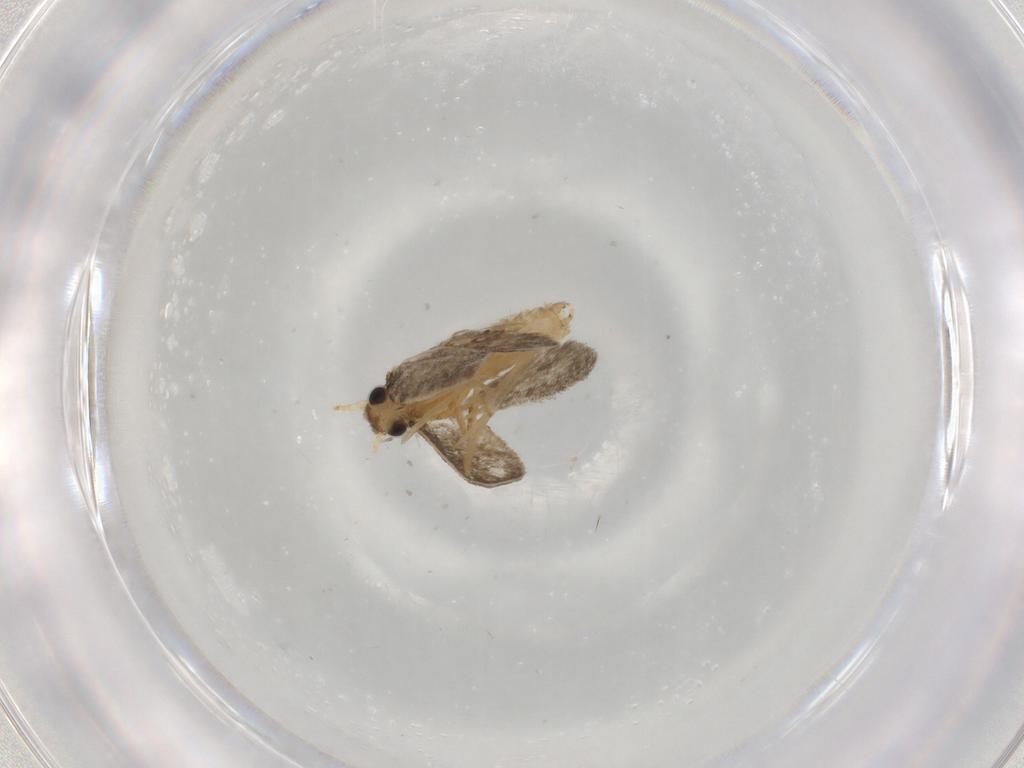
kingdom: Animalia
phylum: Arthropoda
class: Insecta
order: Lepidoptera
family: Psychidae
